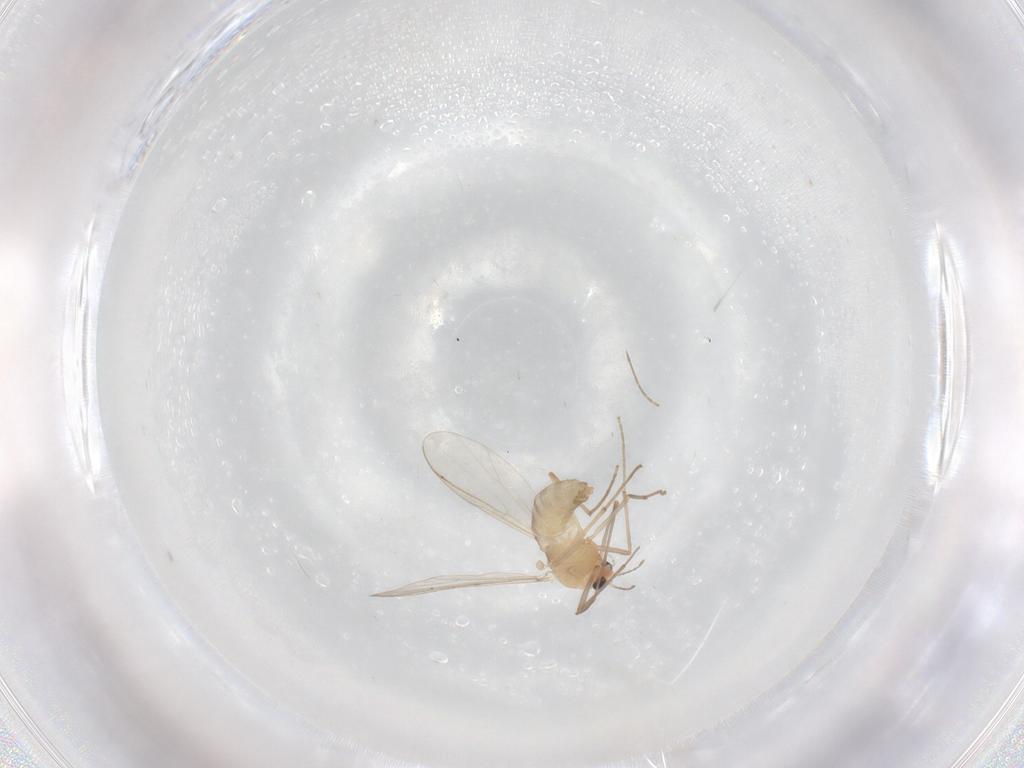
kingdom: Animalia
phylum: Arthropoda
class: Insecta
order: Diptera
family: Chironomidae
